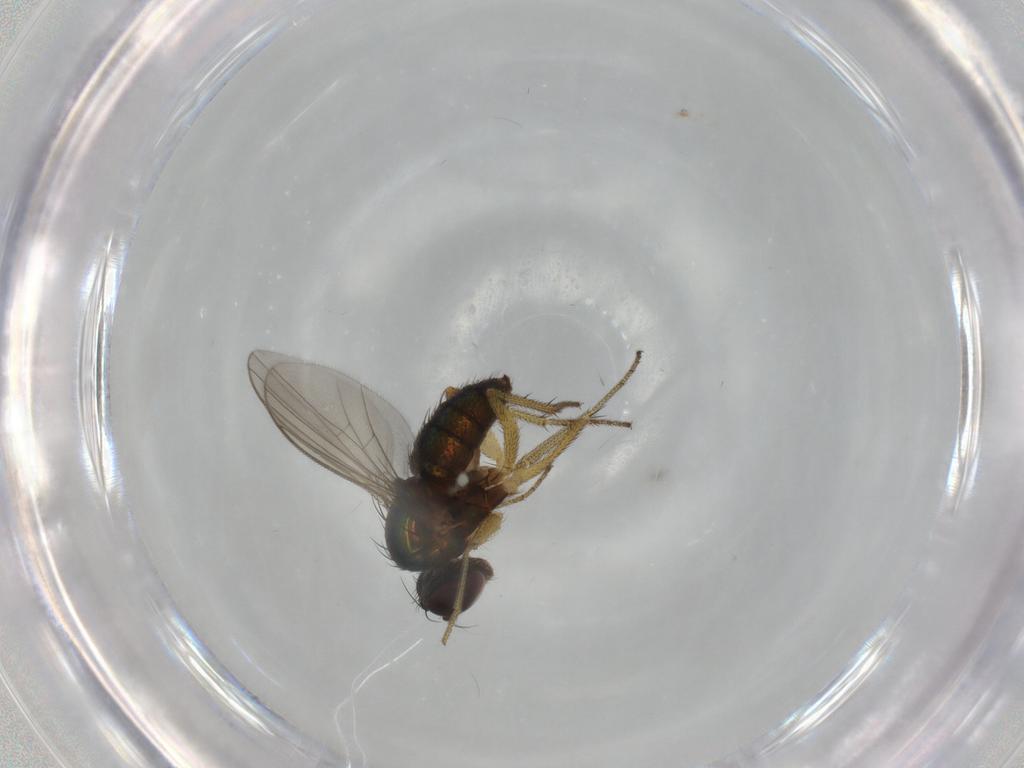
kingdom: Animalia
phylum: Arthropoda
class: Insecta
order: Diptera
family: Dolichopodidae
